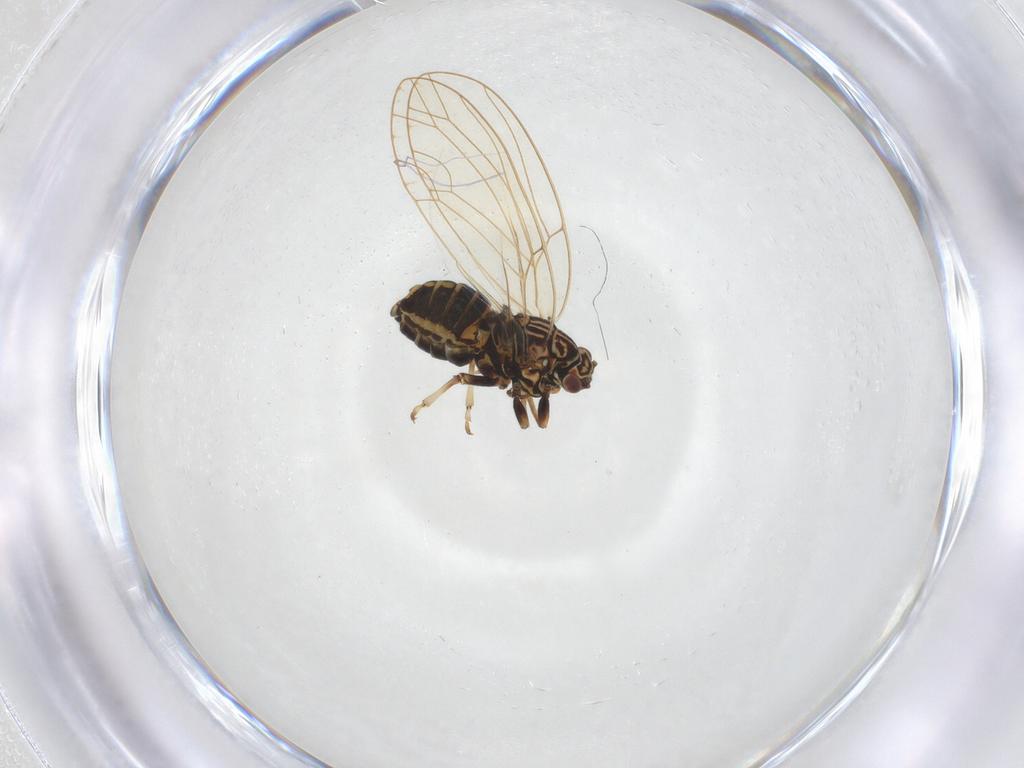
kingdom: Animalia
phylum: Arthropoda
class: Insecta
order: Hemiptera
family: Triozidae
